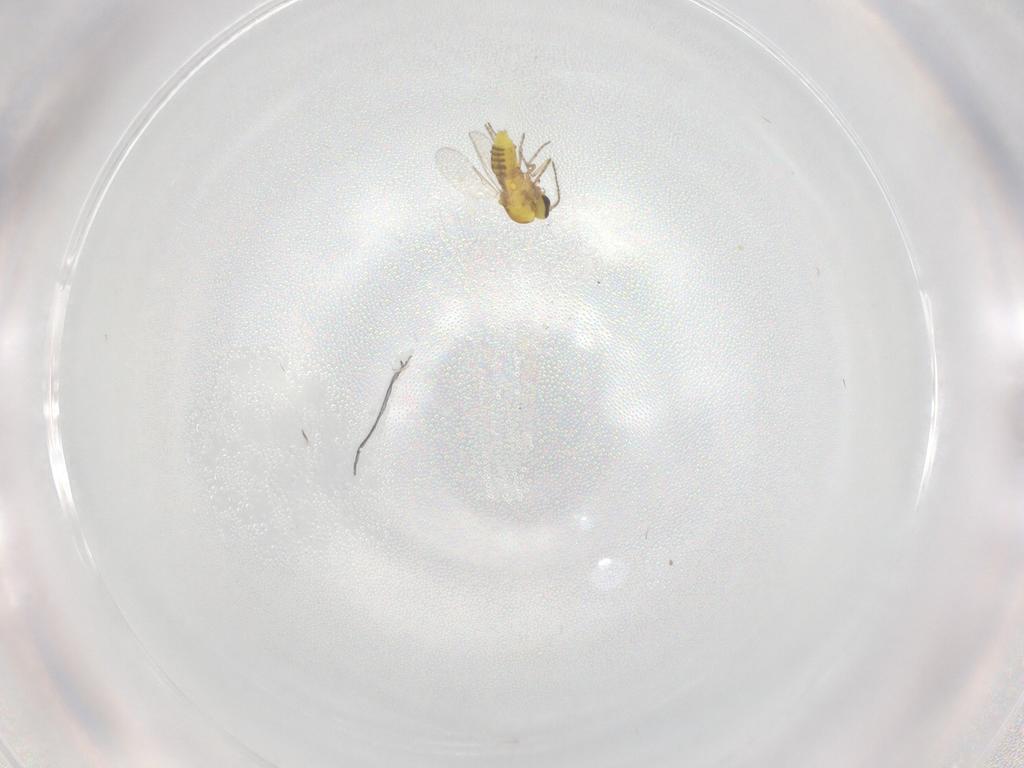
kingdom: Animalia
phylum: Arthropoda
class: Insecta
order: Diptera
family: Ceratopogonidae
